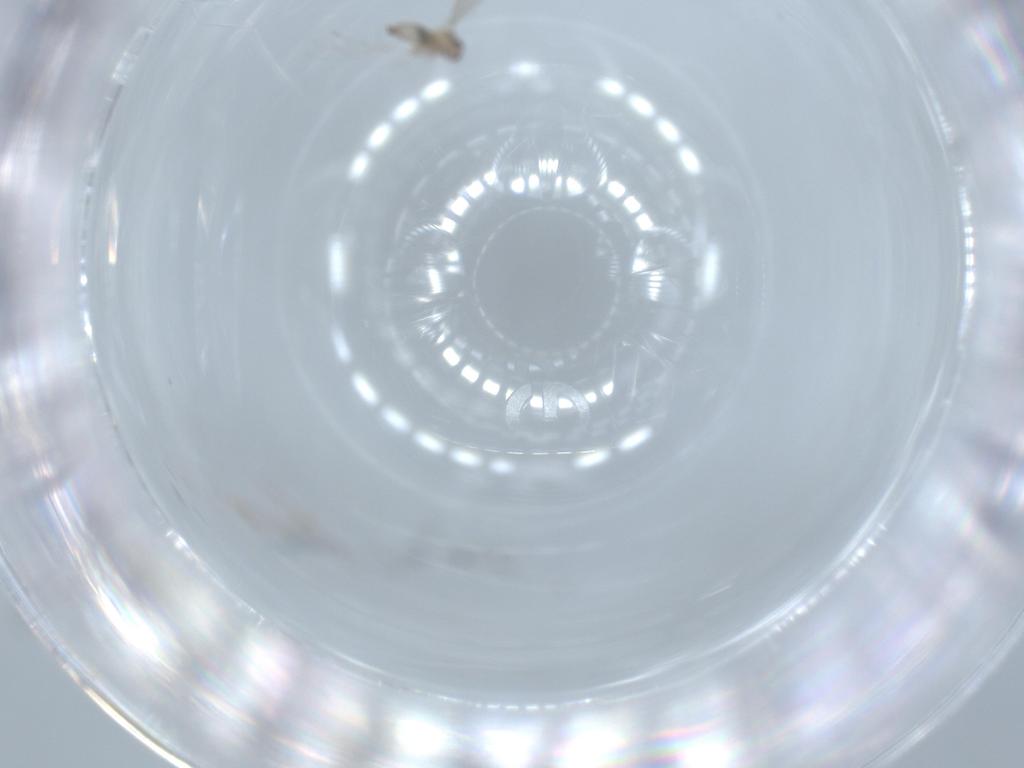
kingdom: Animalia
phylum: Arthropoda
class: Insecta
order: Diptera
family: Cecidomyiidae
